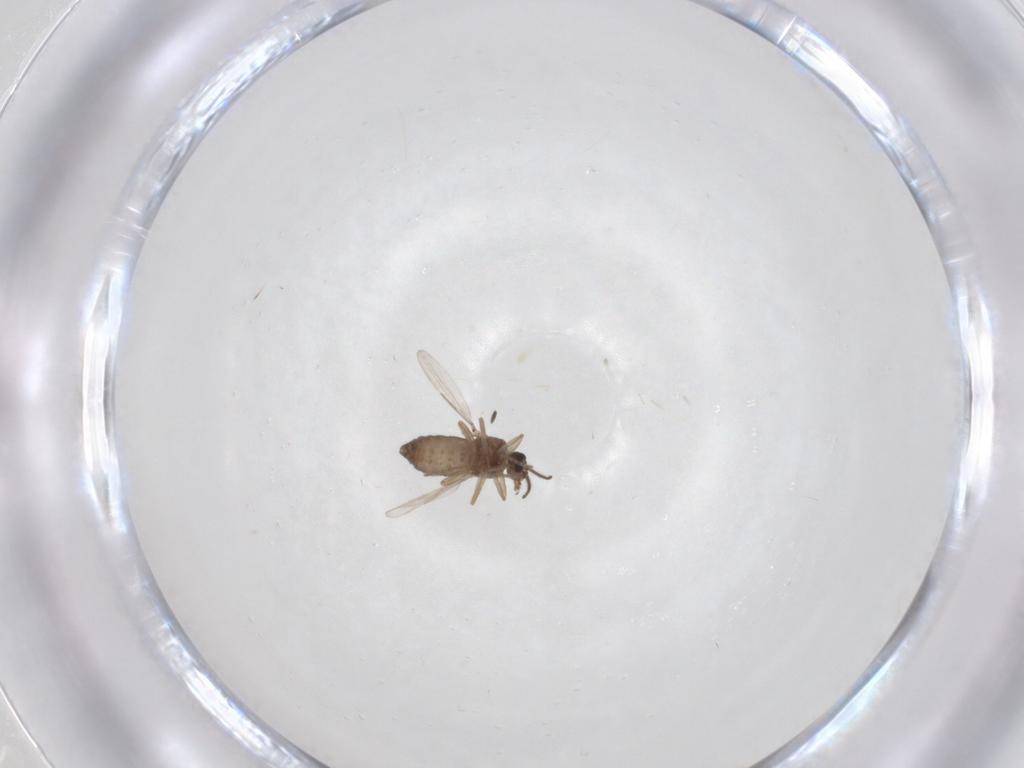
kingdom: Animalia
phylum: Arthropoda
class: Insecta
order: Diptera
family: Ceratopogonidae
